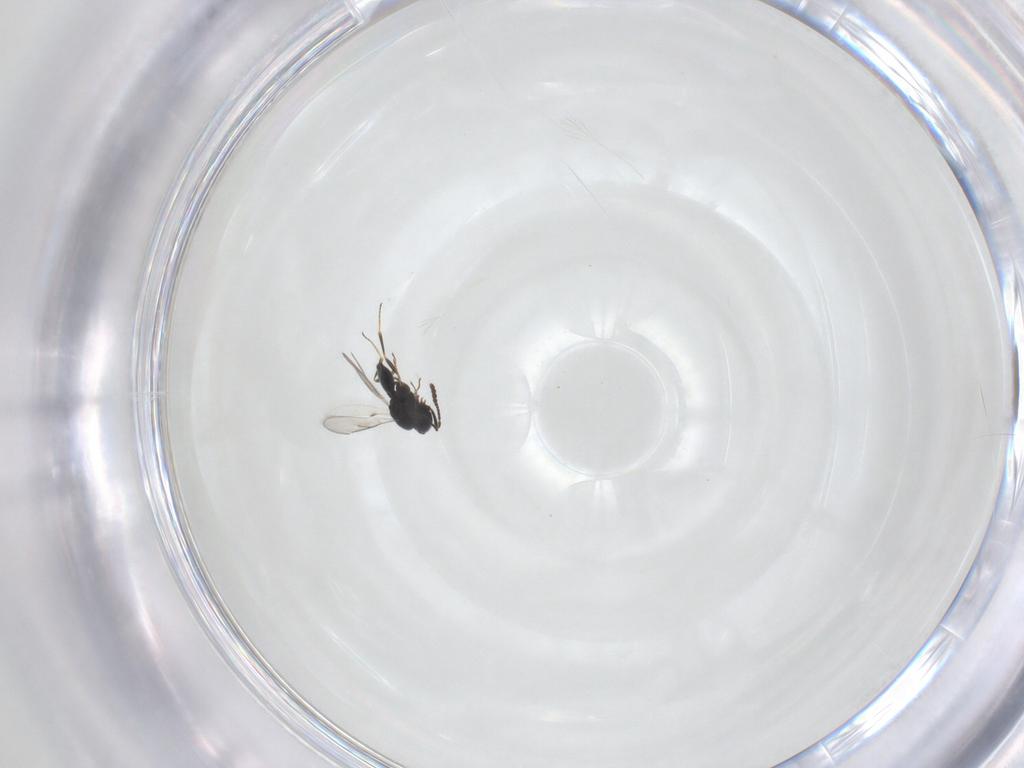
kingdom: Animalia
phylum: Arthropoda
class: Insecta
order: Hymenoptera
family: Scelionidae
